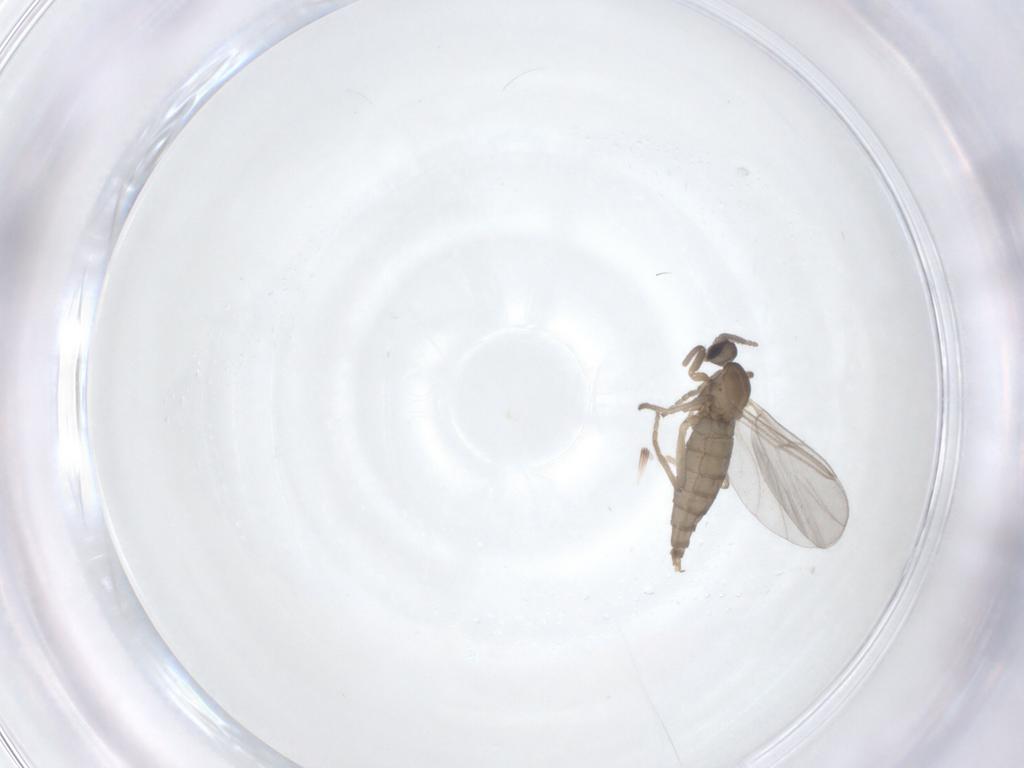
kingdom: Animalia
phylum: Arthropoda
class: Insecta
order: Diptera
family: Cecidomyiidae
